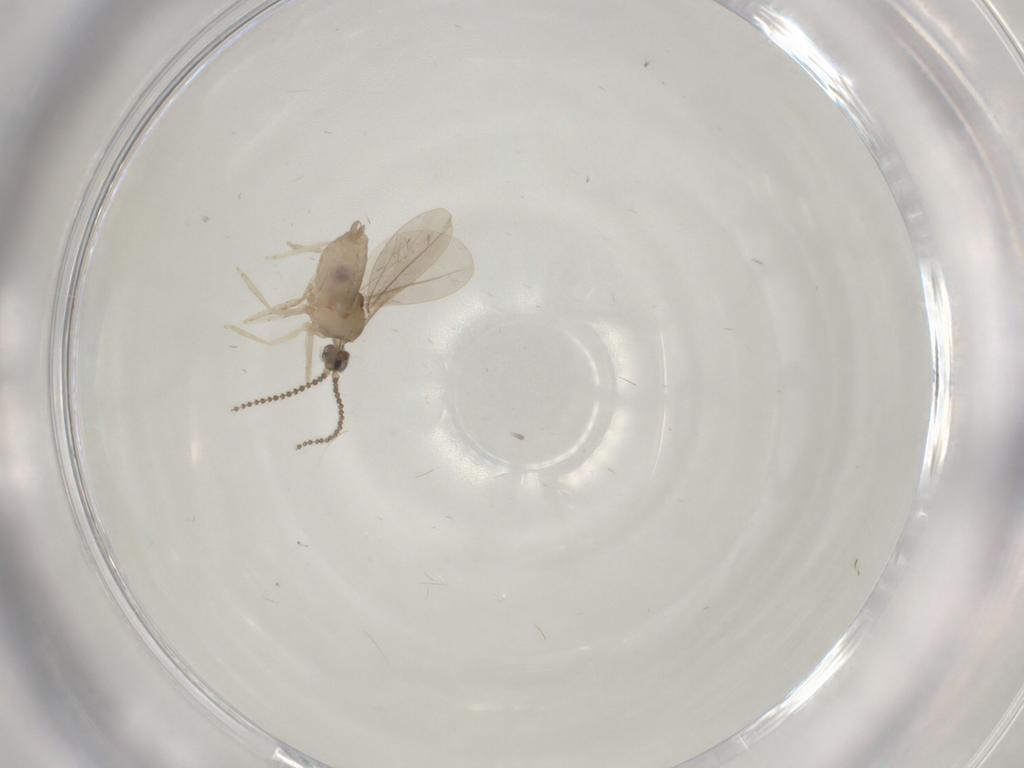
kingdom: Animalia
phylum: Arthropoda
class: Insecta
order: Diptera
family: Cecidomyiidae
